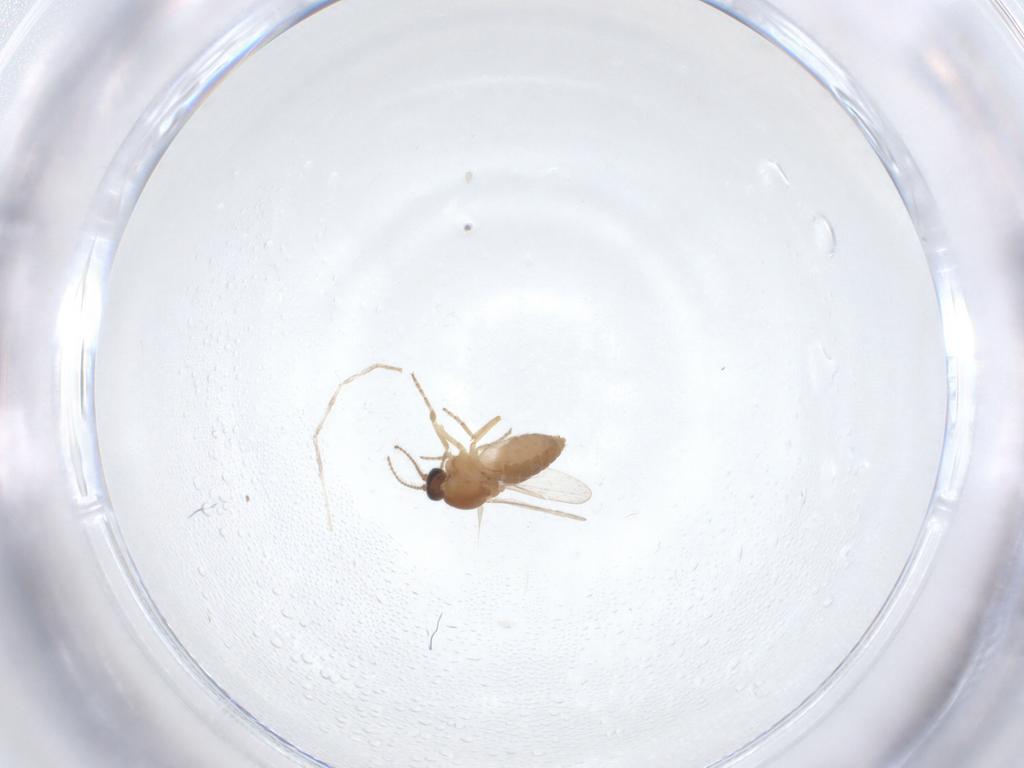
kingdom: Animalia
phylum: Arthropoda
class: Insecta
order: Diptera
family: Ceratopogonidae
